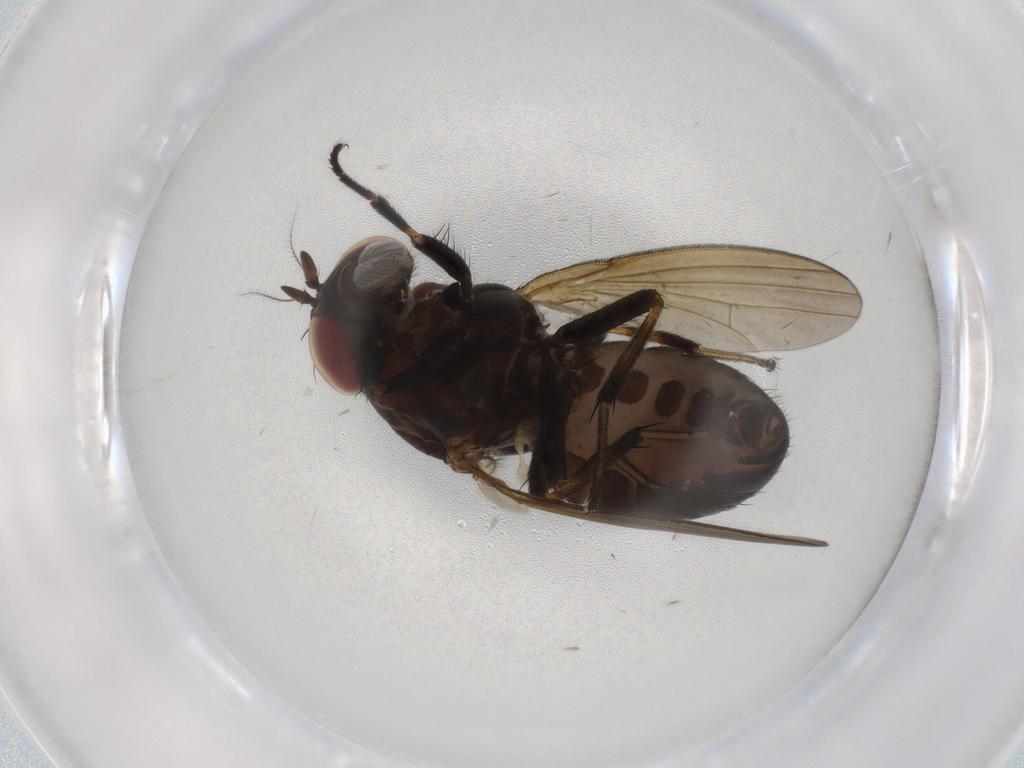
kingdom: Animalia
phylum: Arthropoda
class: Insecta
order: Diptera
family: Lauxaniidae
